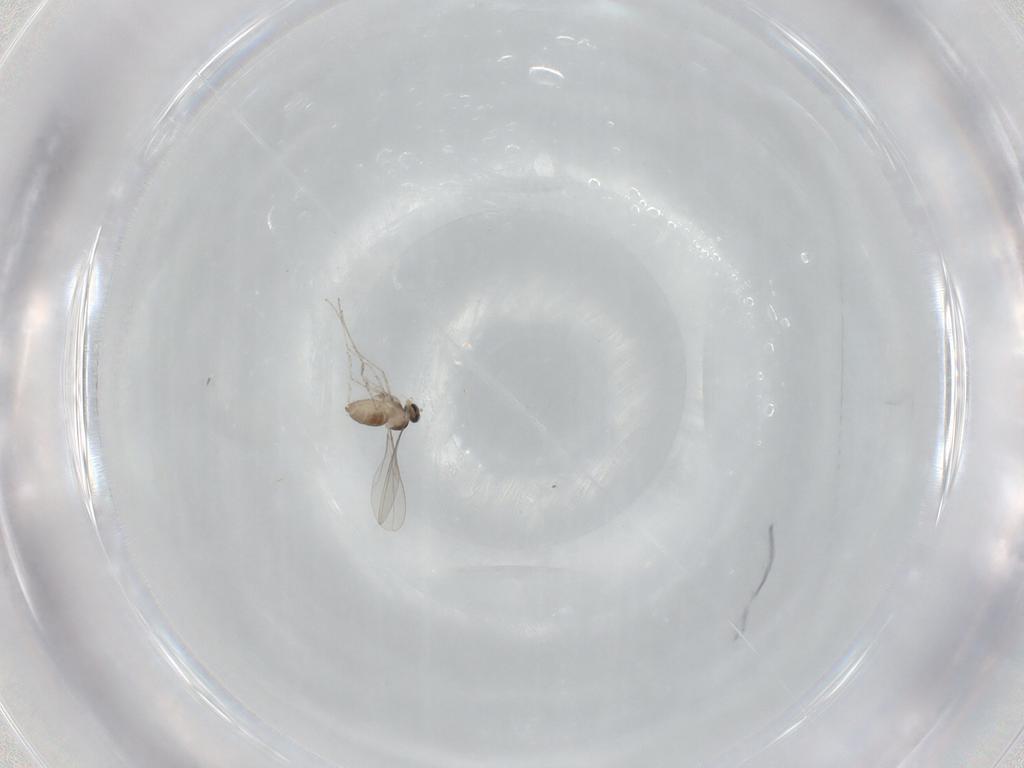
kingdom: Animalia
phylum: Arthropoda
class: Insecta
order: Diptera
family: Cecidomyiidae
